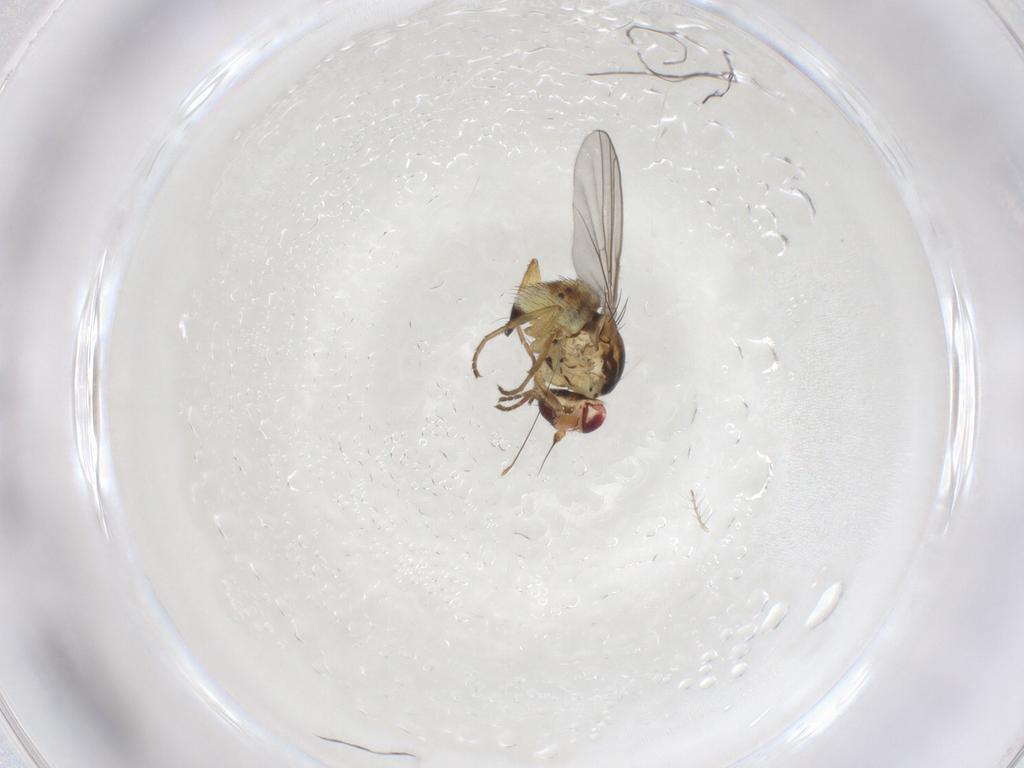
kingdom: Animalia
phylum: Arthropoda
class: Insecta
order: Diptera
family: Agromyzidae
